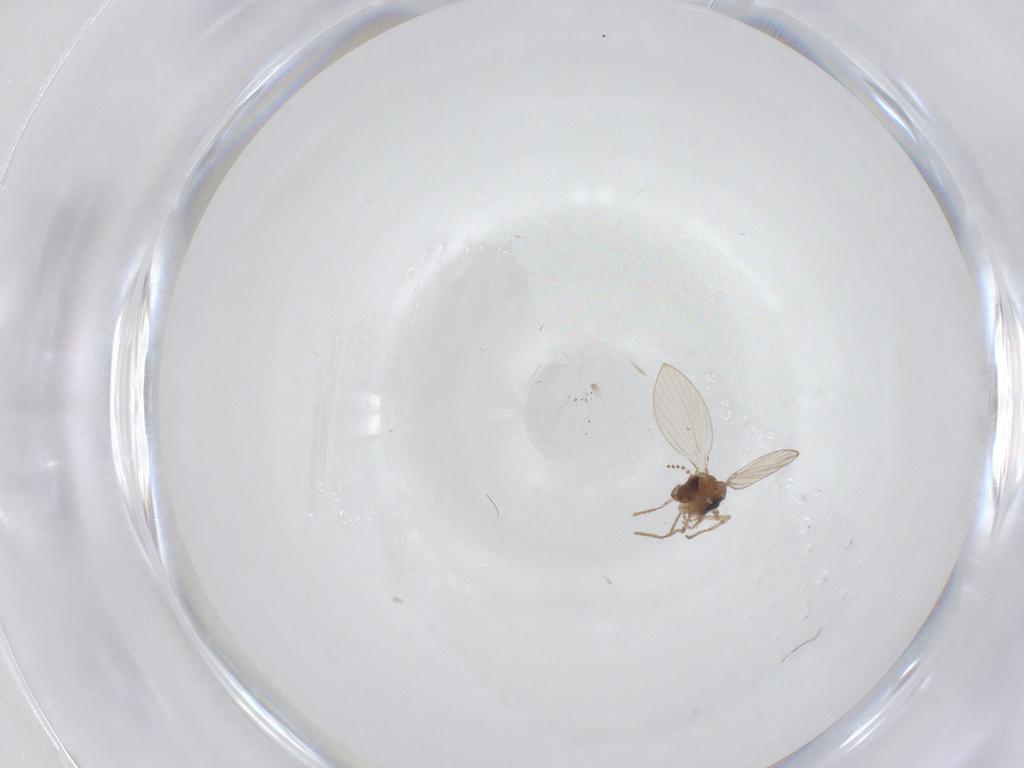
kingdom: Animalia
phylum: Arthropoda
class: Insecta
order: Diptera
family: Psychodidae
